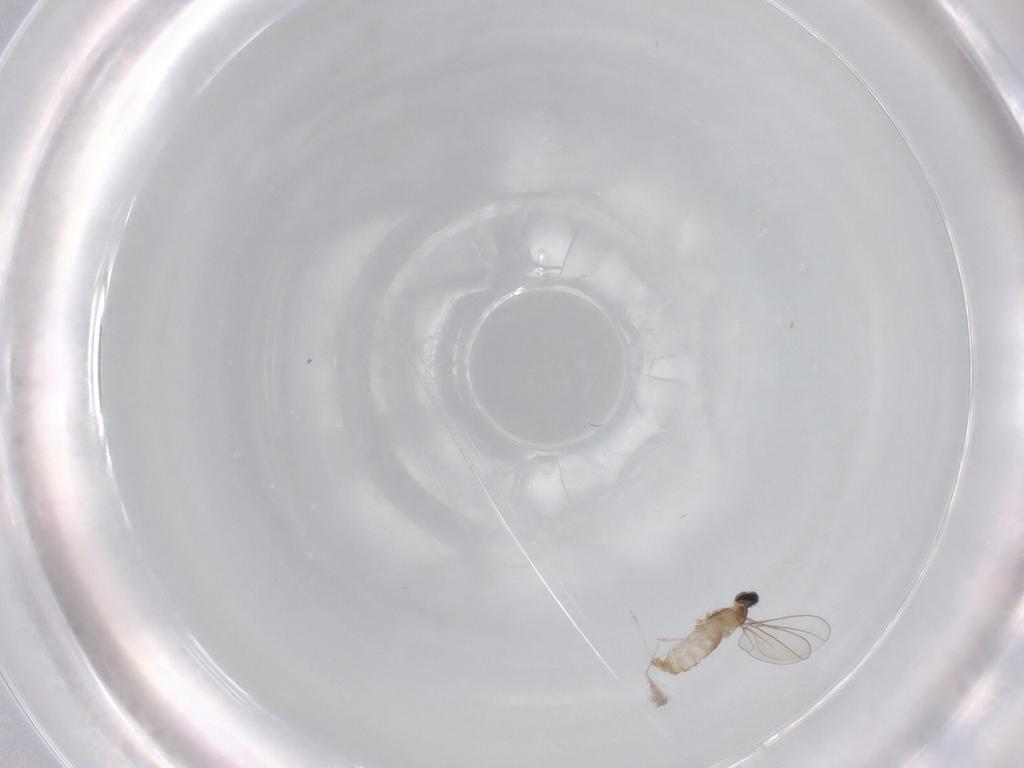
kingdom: Animalia
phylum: Arthropoda
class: Insecta
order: Diptera
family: Cecidomyiidae
